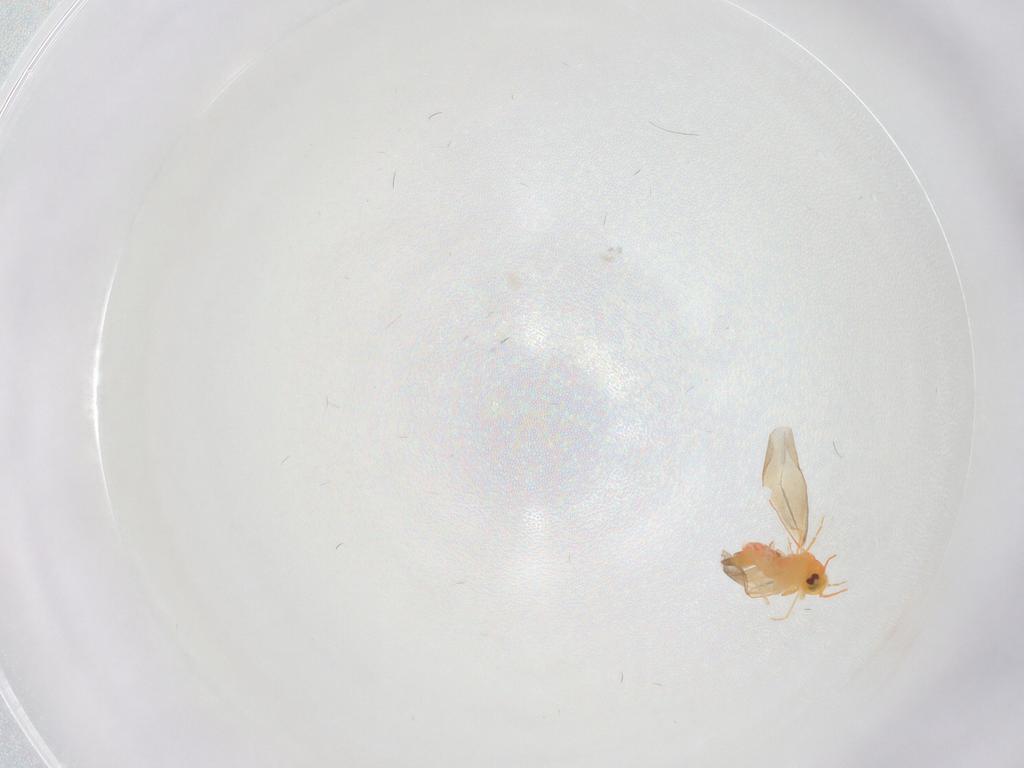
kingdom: Animalia
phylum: Arthropoda
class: Insecta
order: Hemiptera
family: Aleyrodidae
